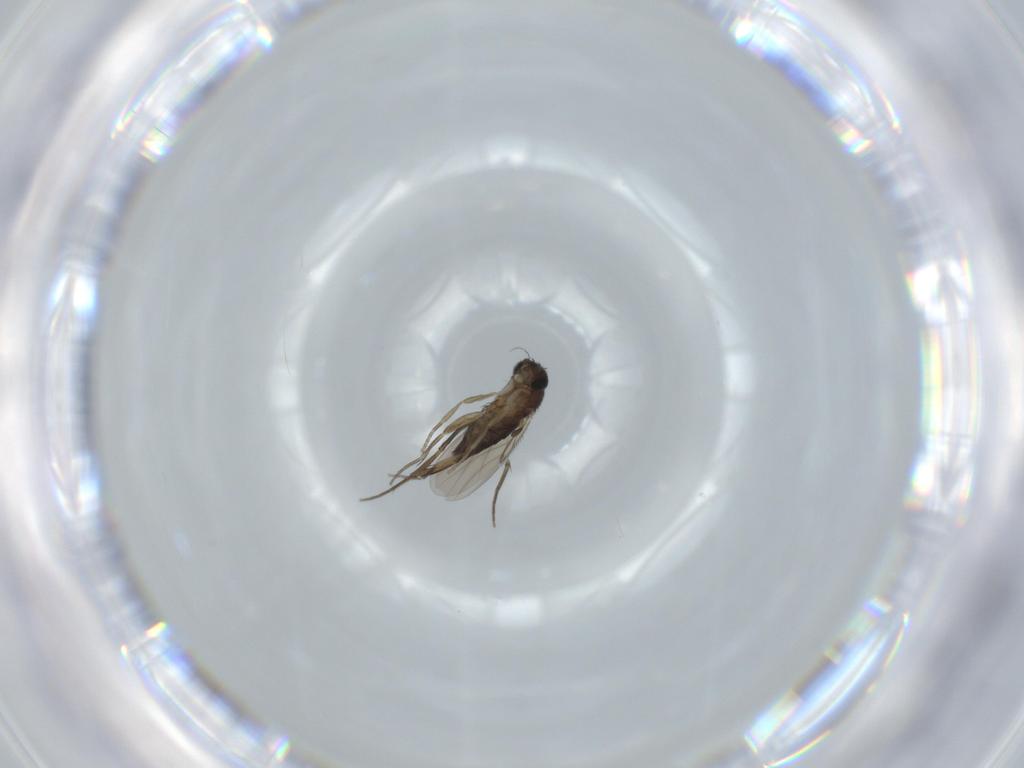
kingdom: Animalia
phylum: Arthropoda
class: Insecta
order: Diptera
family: Phoridae
